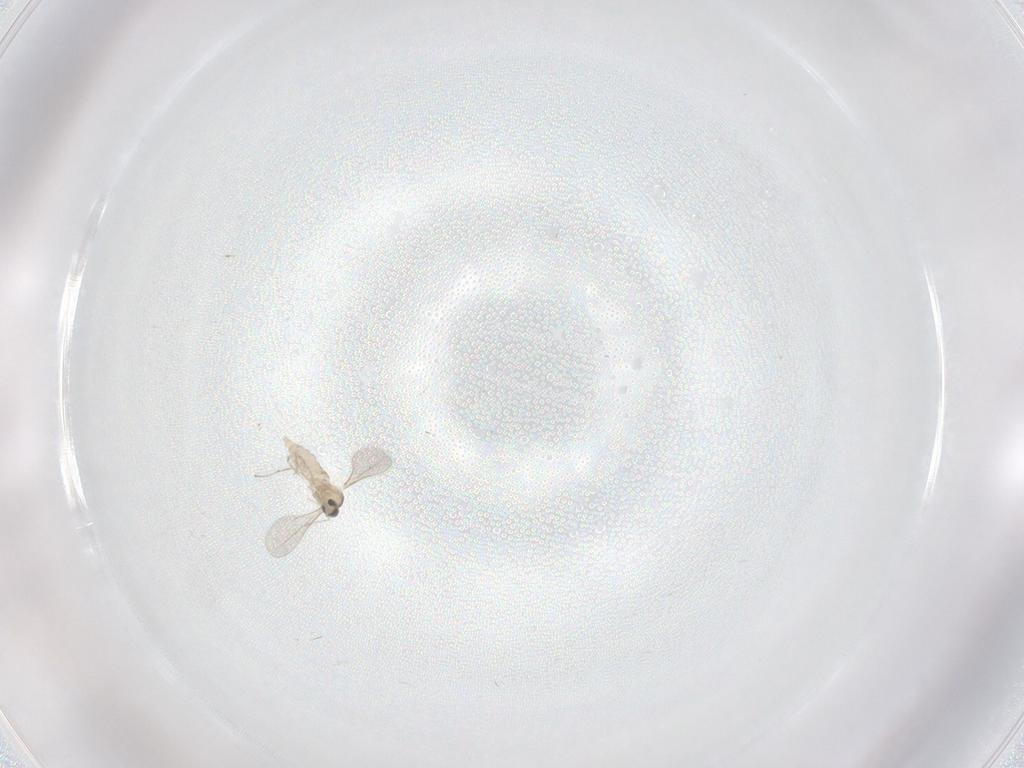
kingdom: Animalia
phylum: Arthropoda
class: Insecta
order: Diptera
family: Cecidomyiidae
